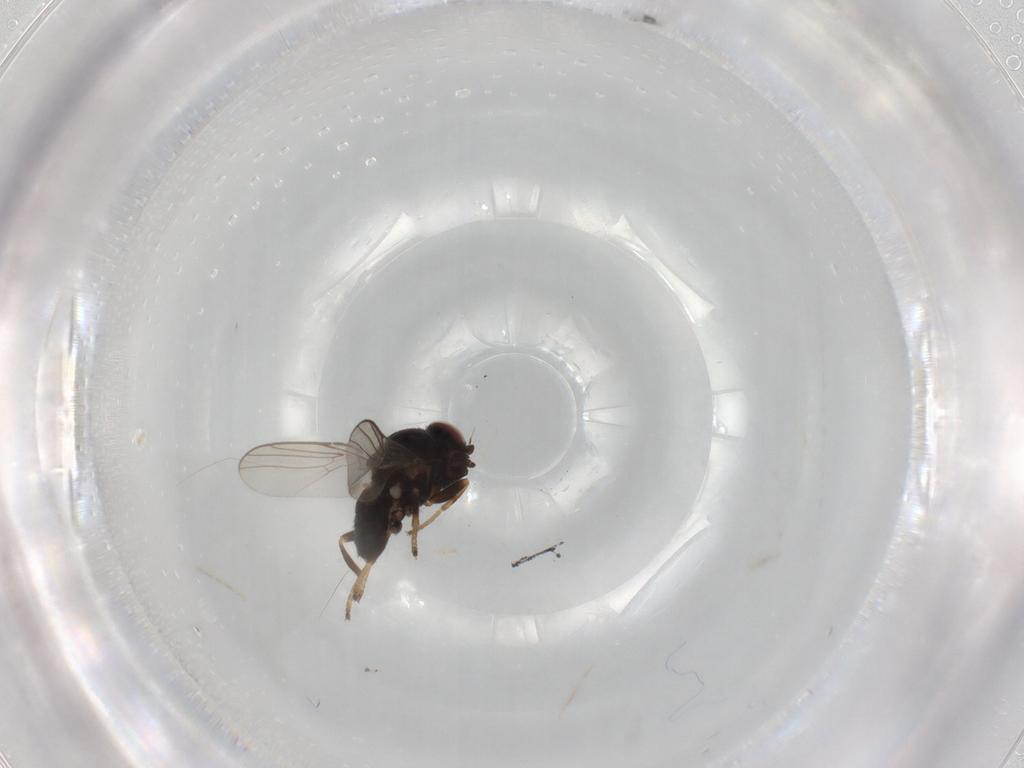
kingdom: Animalia
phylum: Arthropoda
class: Insecta
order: Diptera
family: Chloropidae
